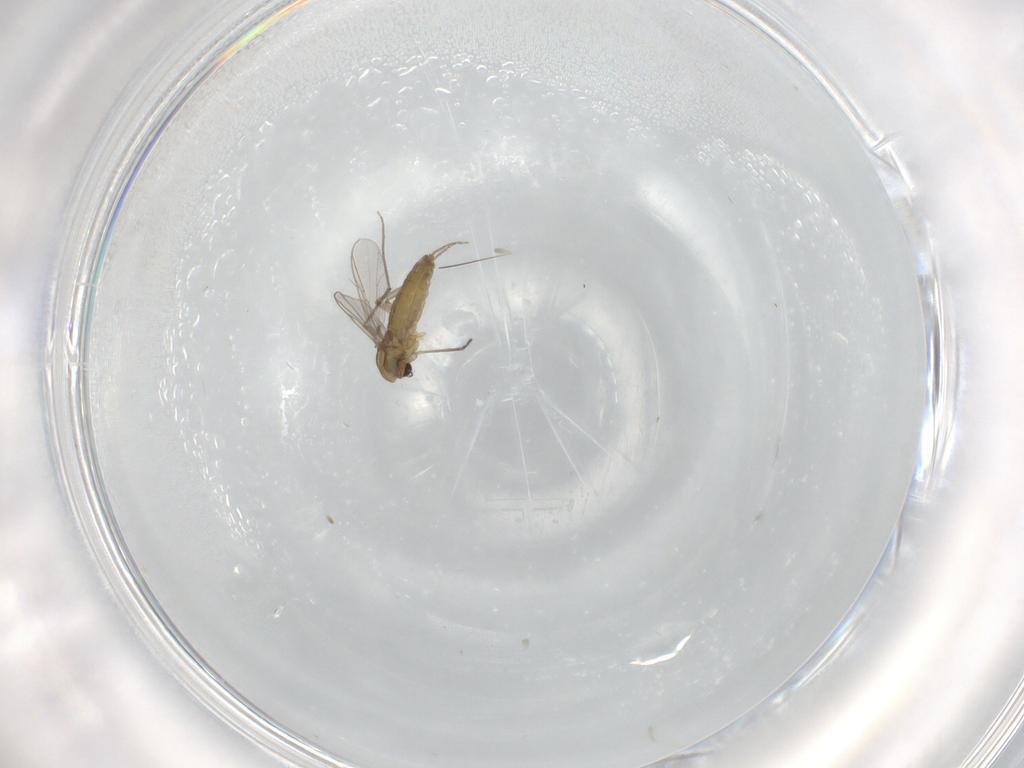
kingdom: Animalia
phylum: Arthropoda
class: Insecta
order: Diptera
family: Chironomidae
